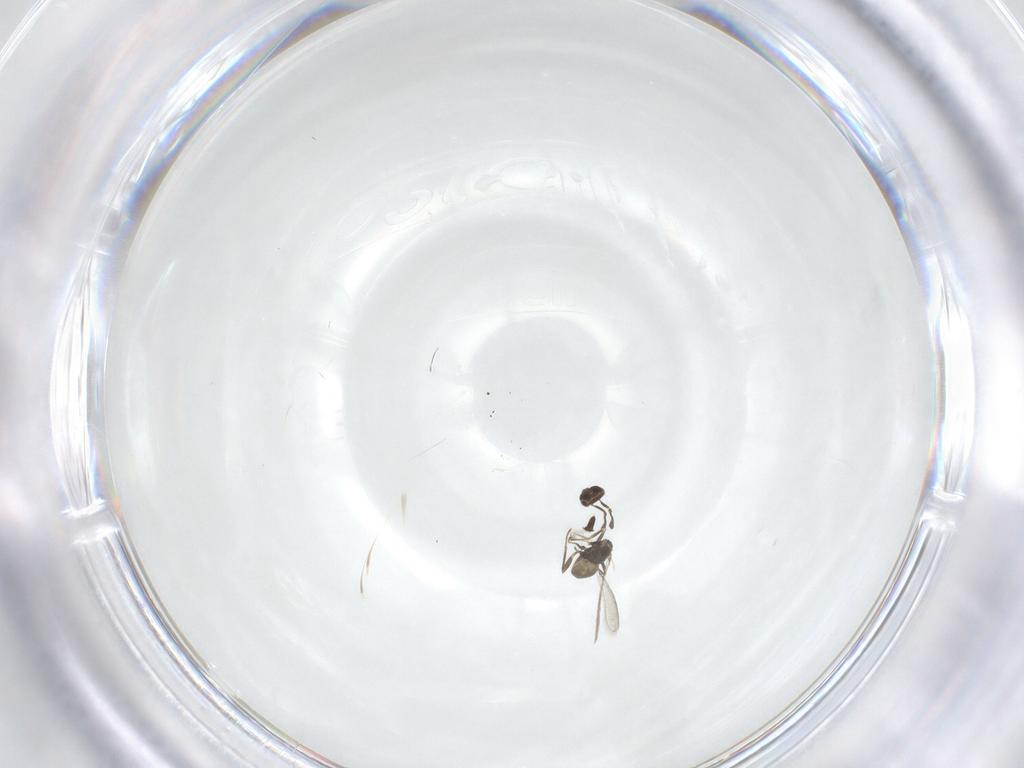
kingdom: Animalia
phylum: Arthropoda
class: Insecta
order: Hymenoptera
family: Mymaridae
